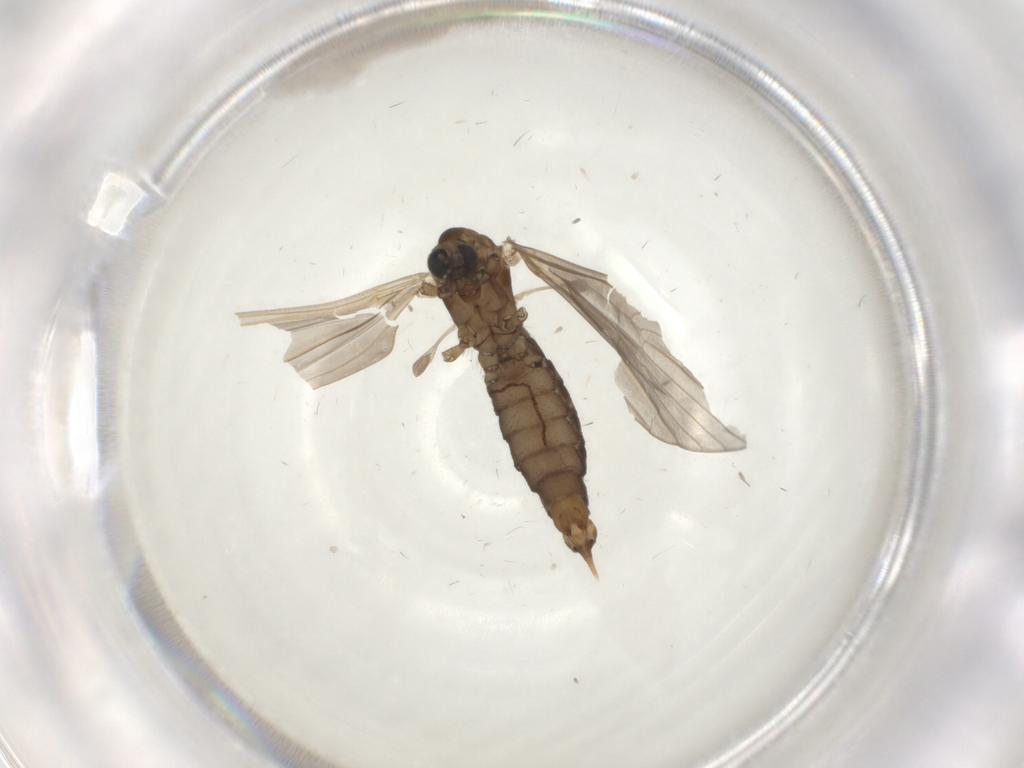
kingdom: Animalia
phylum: Arthropoda
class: Insecta
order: Diptera
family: Limoniidae
